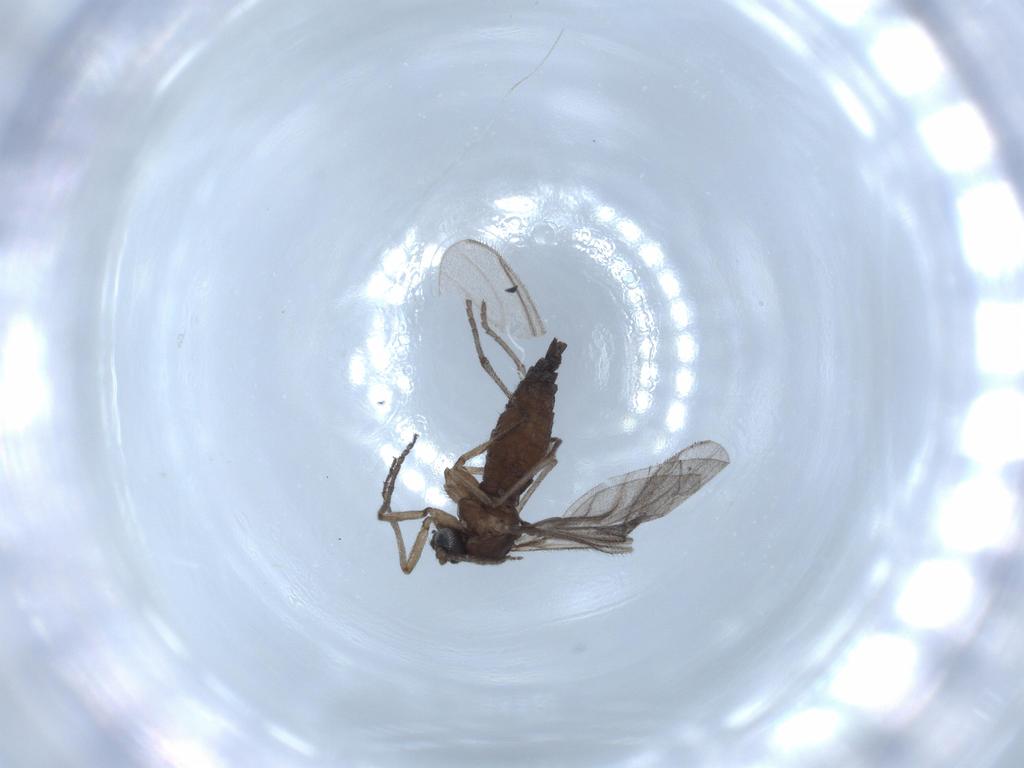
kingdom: Animalia
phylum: Arthropoda
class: Insecta
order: Diptera
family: Sciaridae
